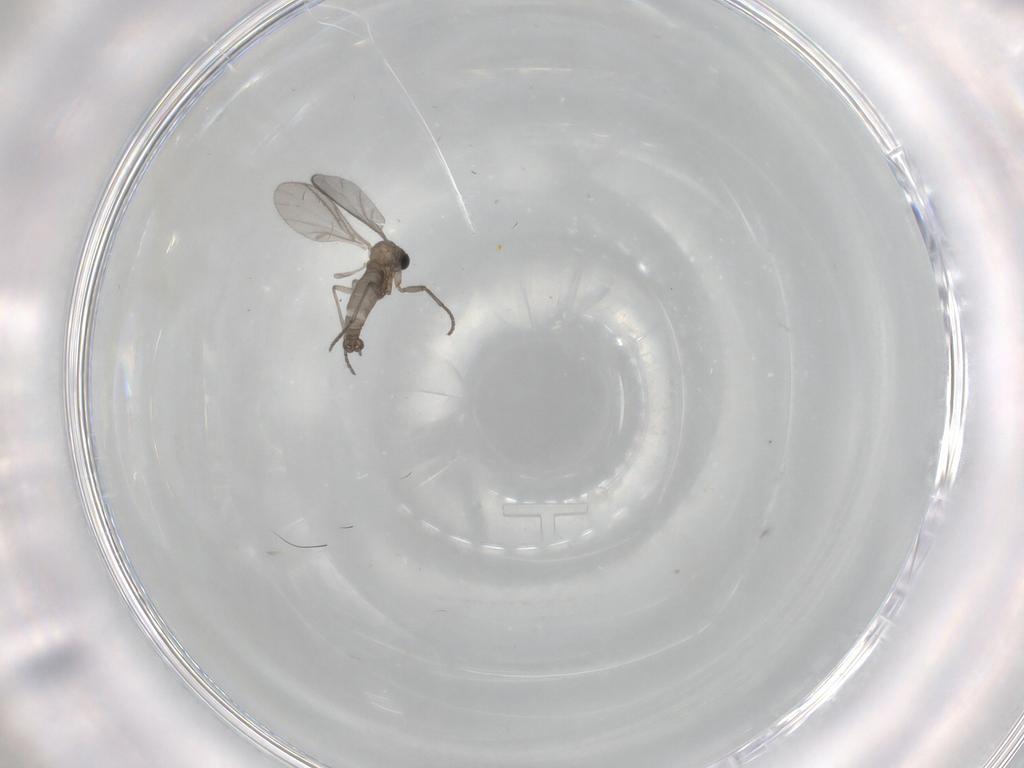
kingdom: Animalia
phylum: Arthropoda
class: Insecta
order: Diptera
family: Sciaridae
